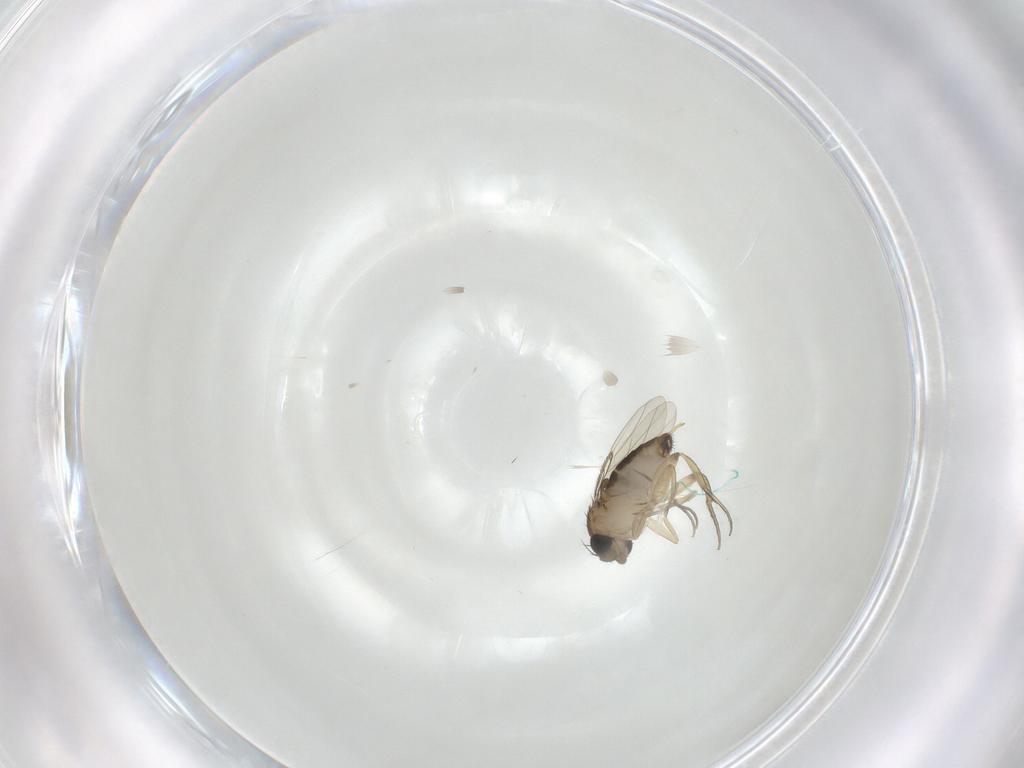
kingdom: Animalia
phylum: Arthropoda
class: Insecta
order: Diptera
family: Phoridae
